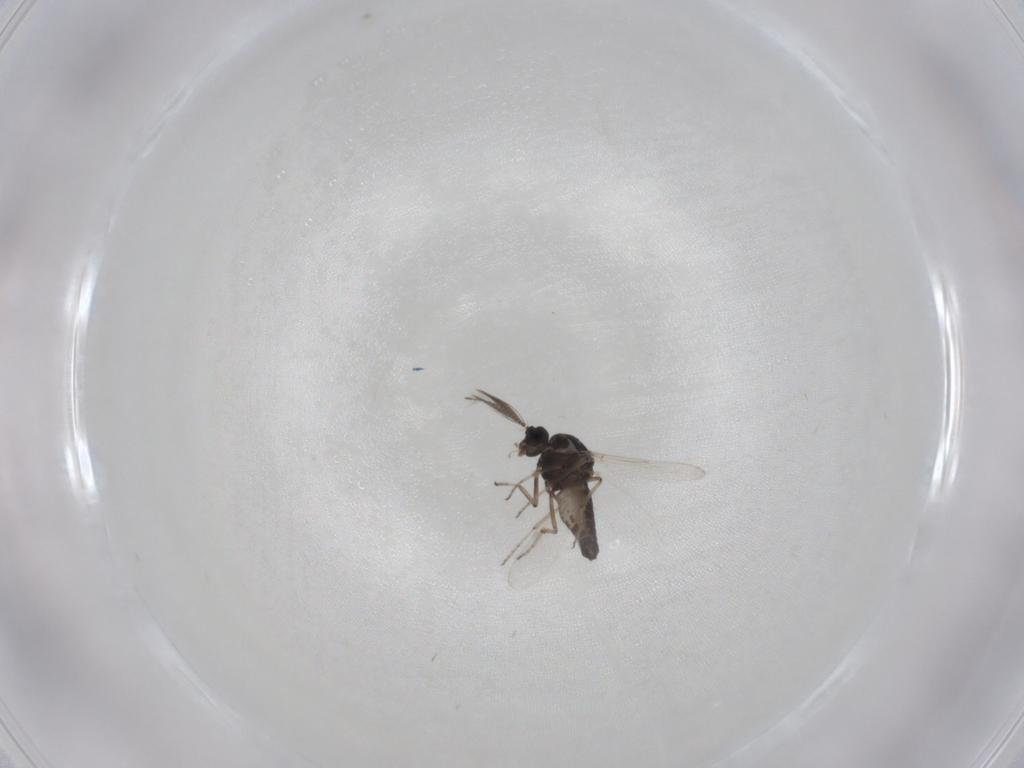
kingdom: Animalia
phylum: Arthropoda
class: Insecta
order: Diptera
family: Ceratopogonidae
